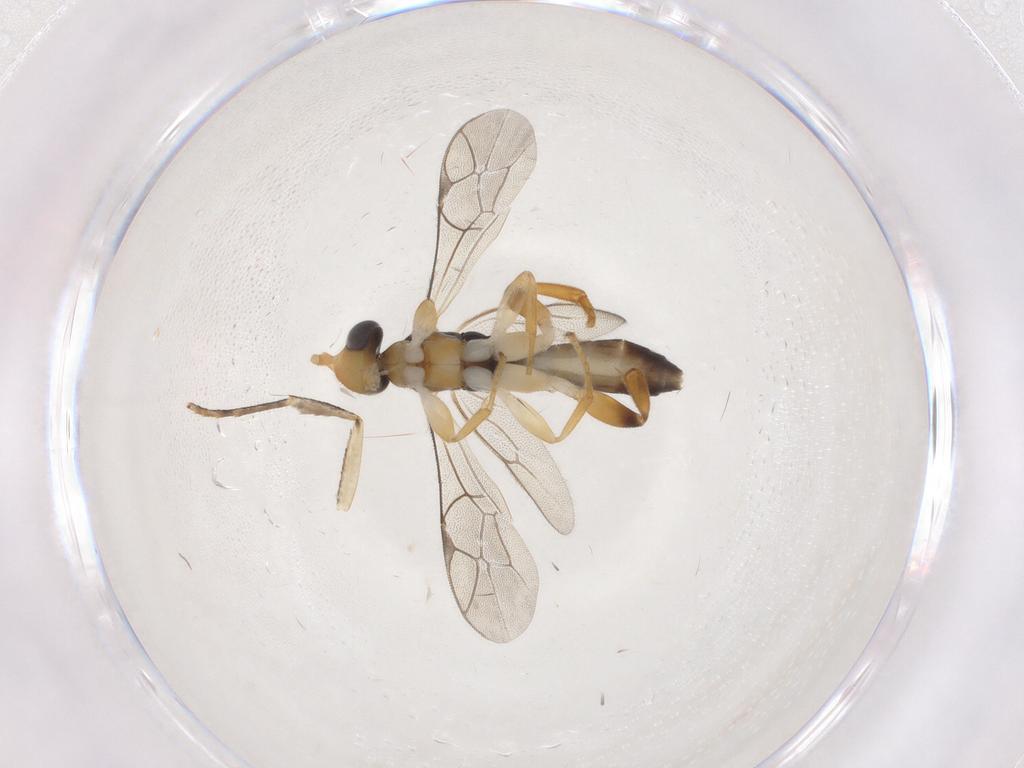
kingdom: Animalia
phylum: Arthropoda
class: Insecta
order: Hymenoptera
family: Ichneumonidae
